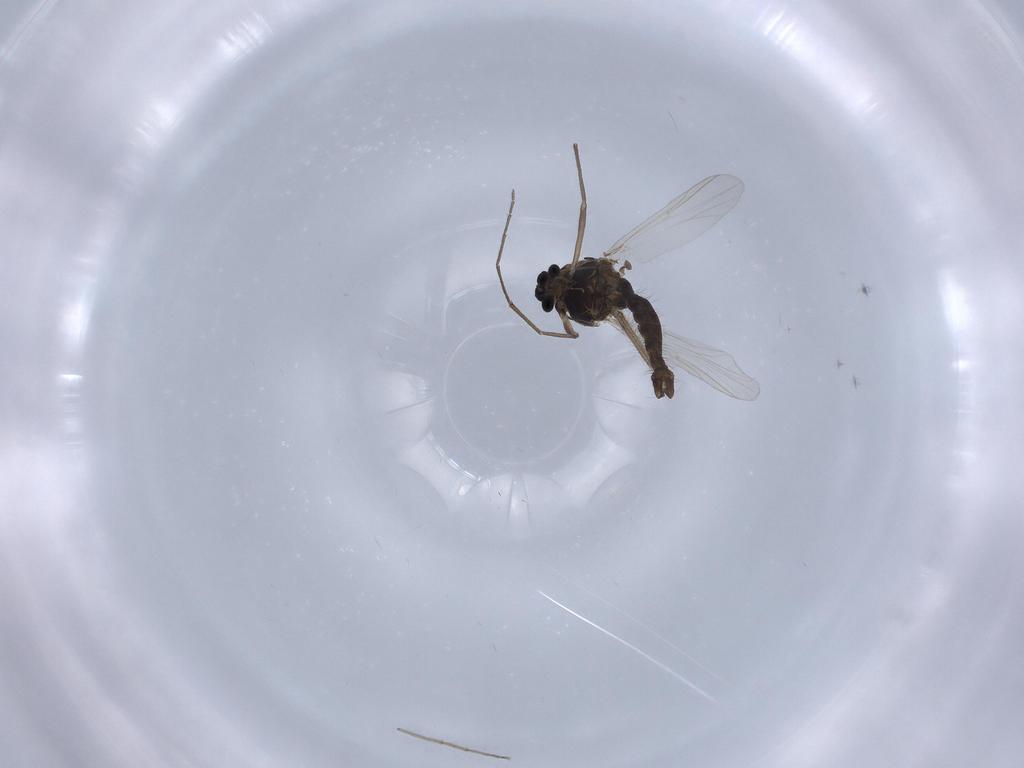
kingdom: Animalia
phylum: Arthropoda
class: Insecta
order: Diptera
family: Chironomidae
